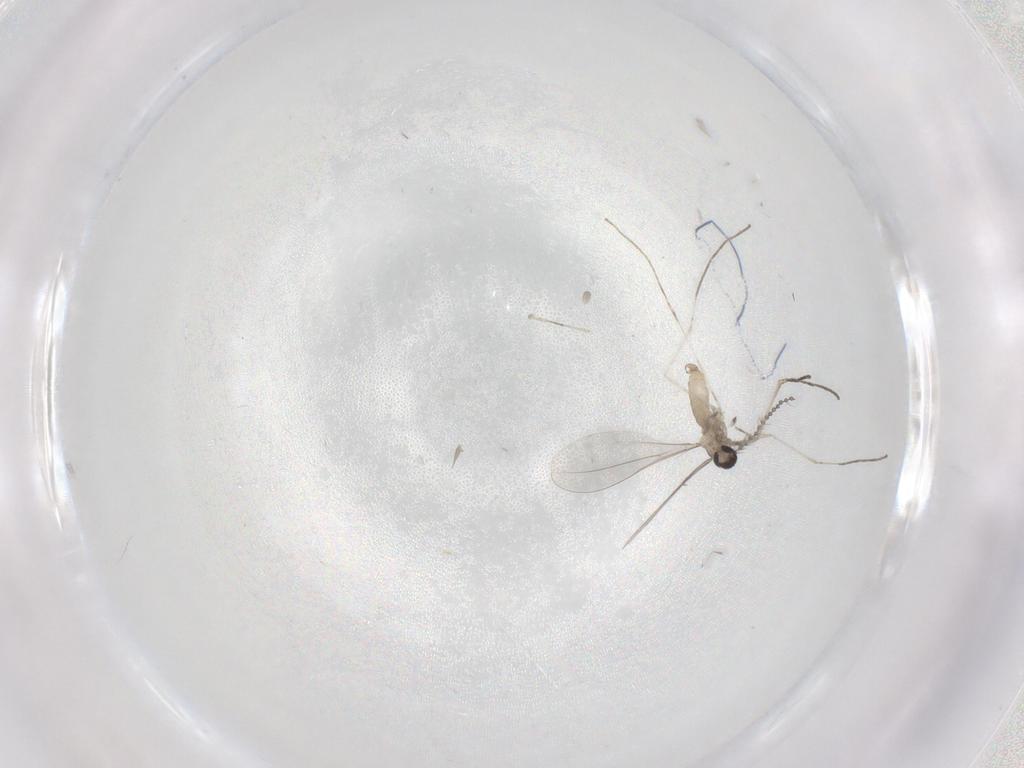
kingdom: Animalia
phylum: Arthropoda
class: Insecta
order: Diptera
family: Cecidomyiidae
